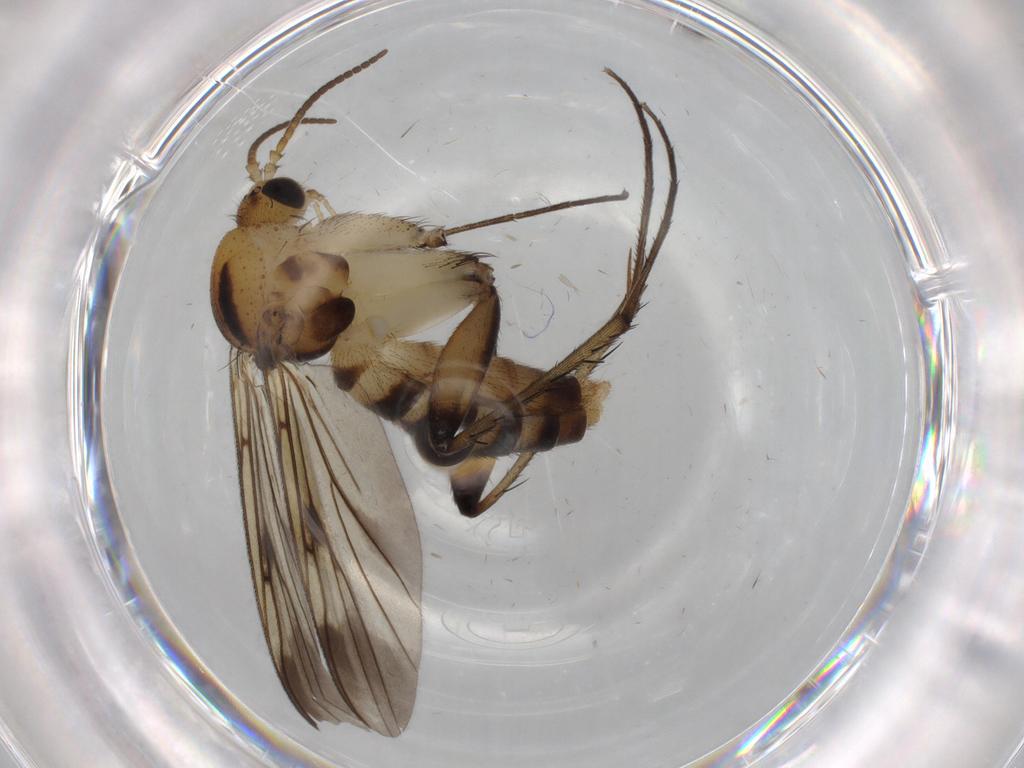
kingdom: Animalia
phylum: Arthropoda
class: Insecta
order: Diptera
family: Mycetophilidae
